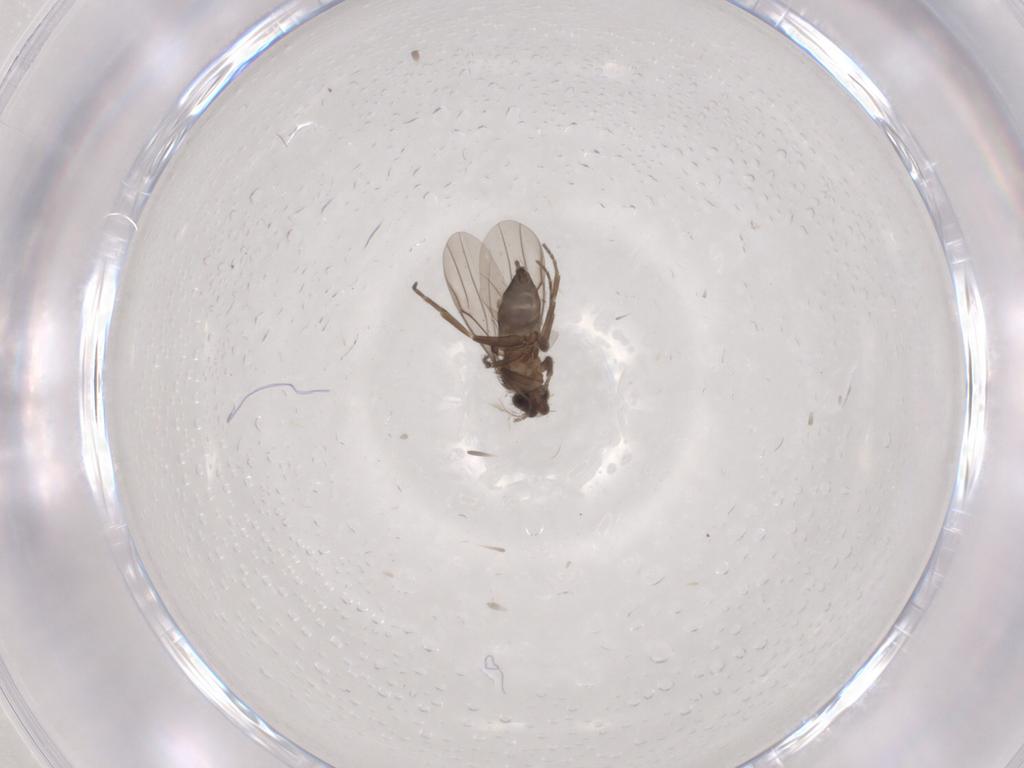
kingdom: Animalia
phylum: Arthropoda
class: Insecta
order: Diptera
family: Phoridae
